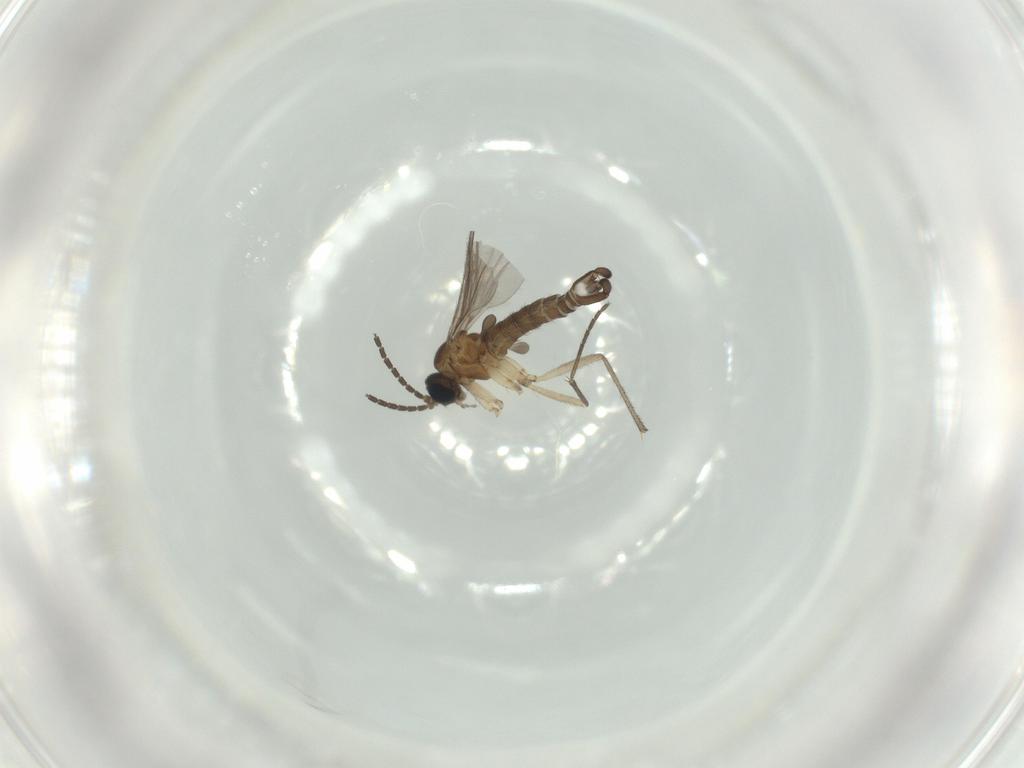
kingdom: Animalia
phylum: Arthropoda
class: Insecta
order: Diptera
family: Sciaridae
